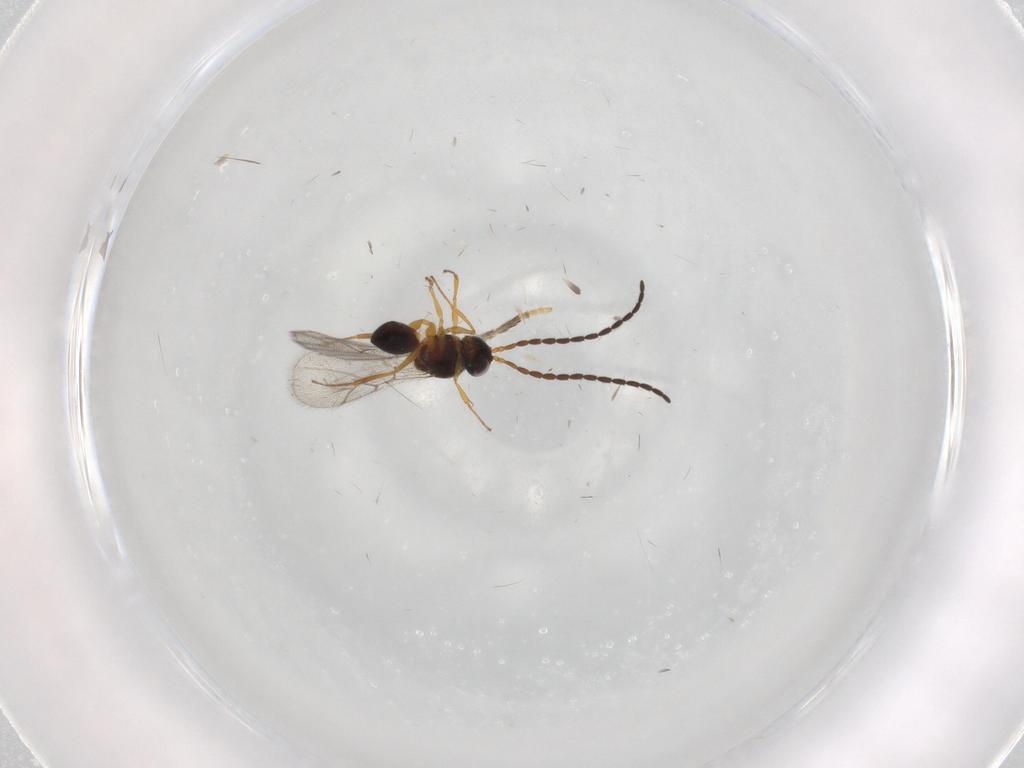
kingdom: Animalia
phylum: Arthropoda
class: Insecta
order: Hymenoptera
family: Figitidae
